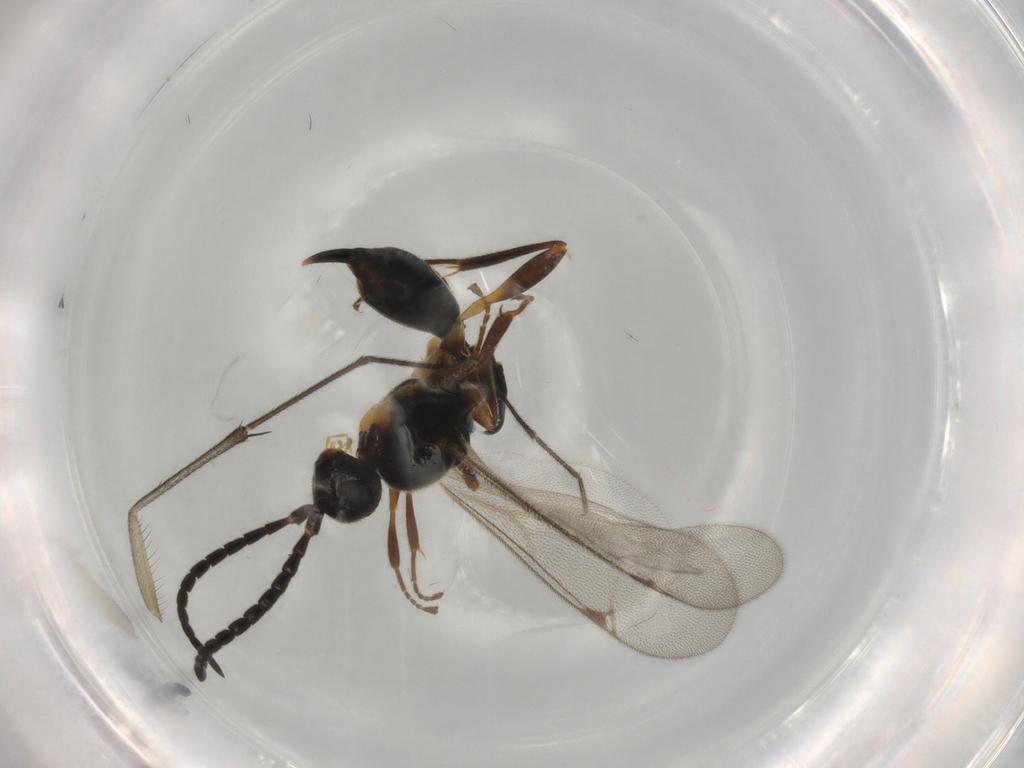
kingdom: Animalia
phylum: Arthropoda
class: Insecta
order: Hymenoptera
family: Proctotrupidae
